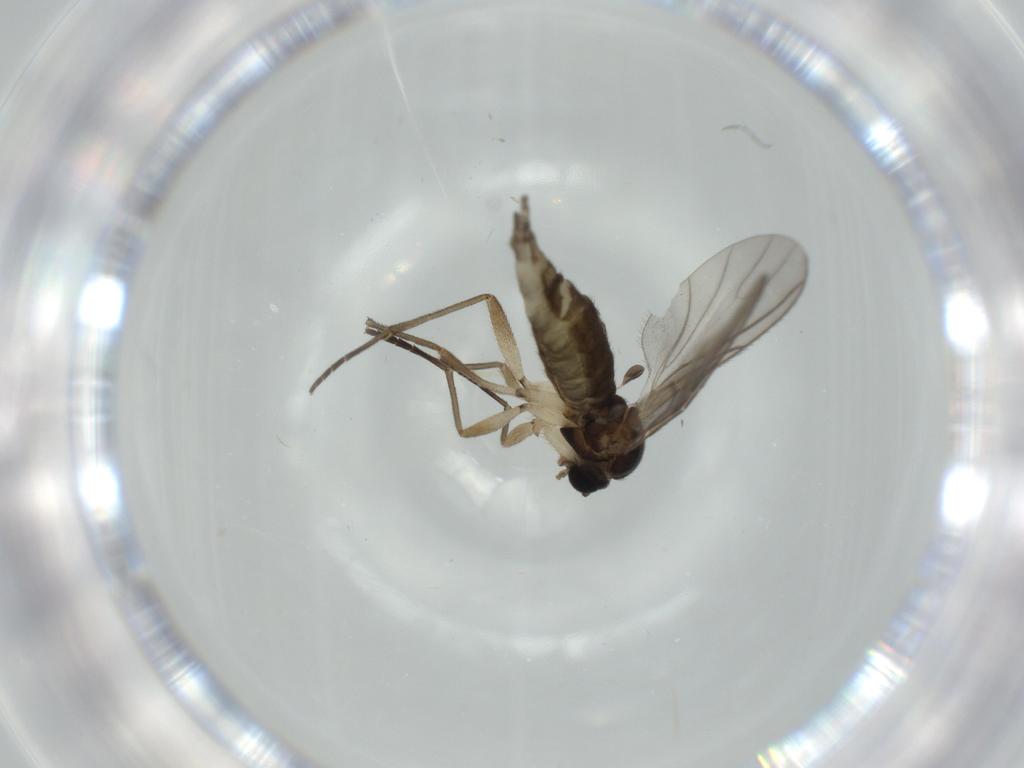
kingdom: Animalia
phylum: Arthropoda
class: Insecta
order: Diptera
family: Sciaridae
